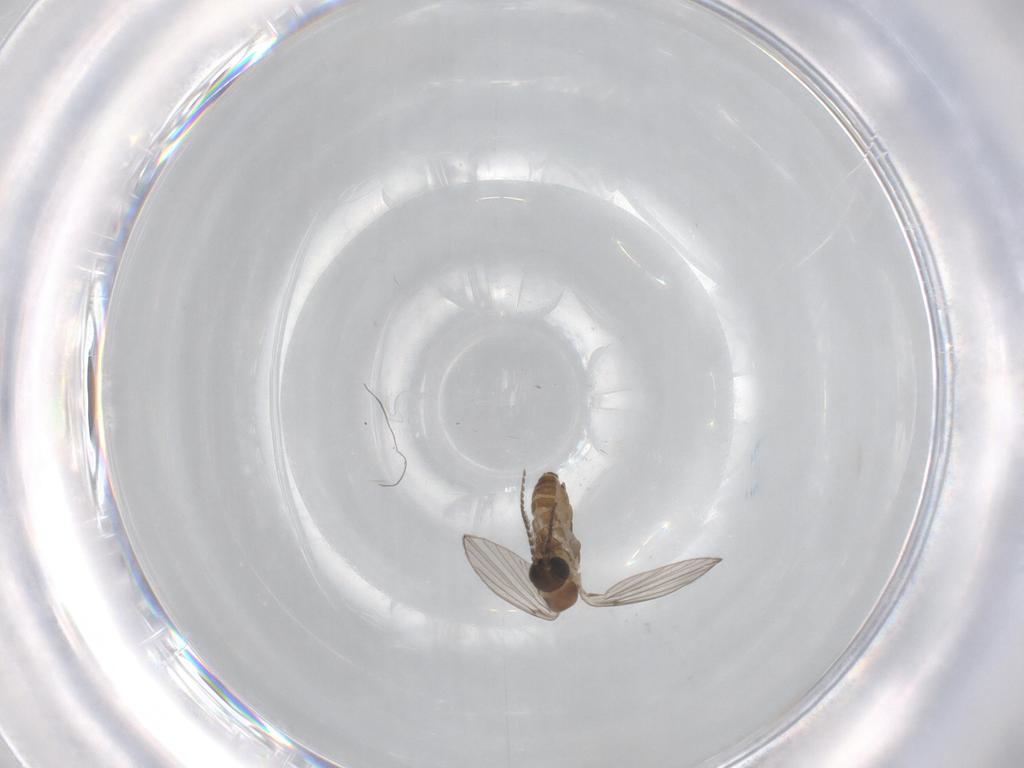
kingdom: Animalia
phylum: Arthropoda
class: Insecta
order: Diptera
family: Psychodidae
